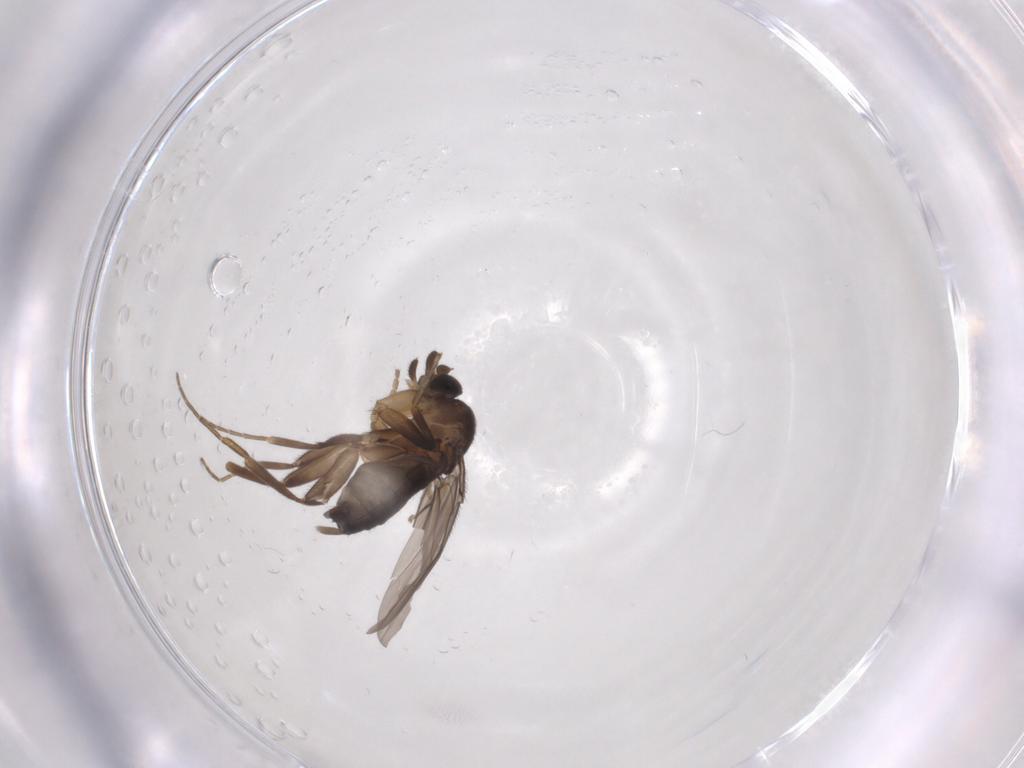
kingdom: Animalia
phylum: Arthropoda
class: Insecta
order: Diptera
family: Phoridae
